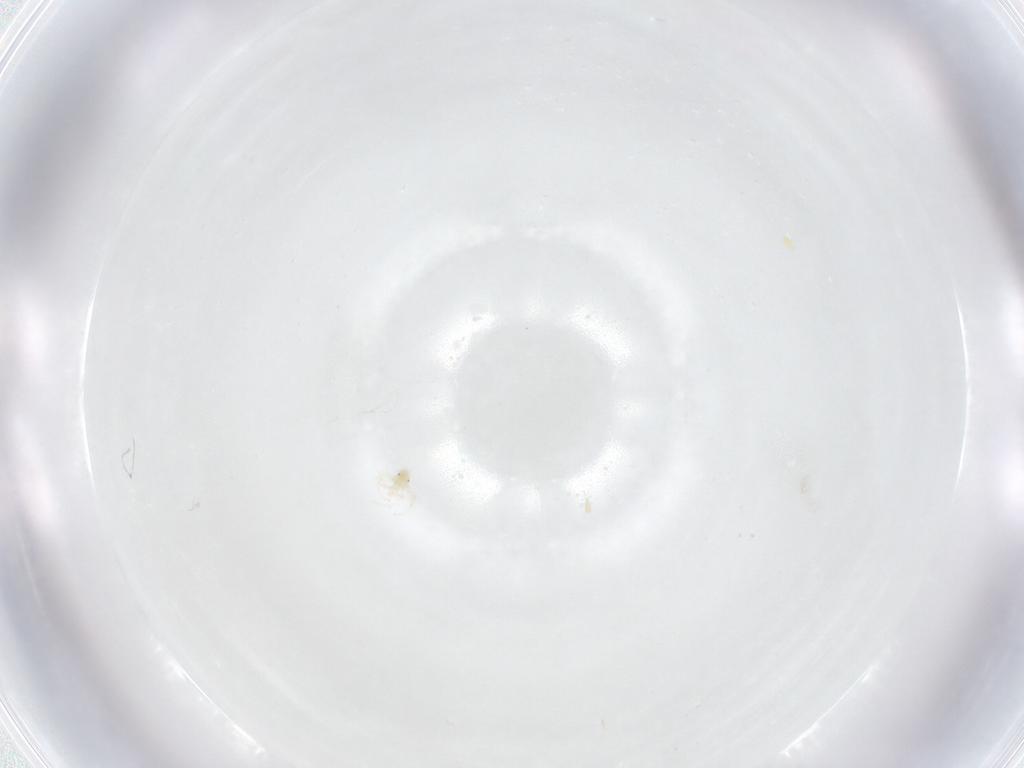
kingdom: Animalia
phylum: Arthropoda
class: Arachnida
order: Trombidiformes
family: Anystidae
